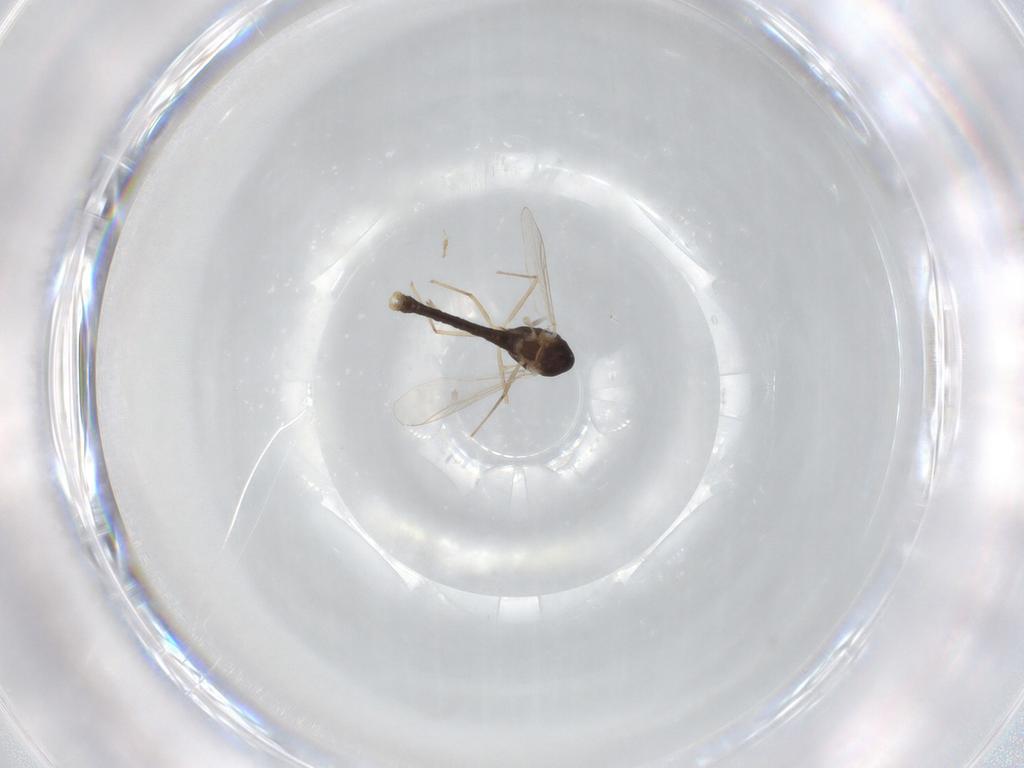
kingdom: Animalia
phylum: Arthropoda
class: Insecta
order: Diptera
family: Chironomidae
